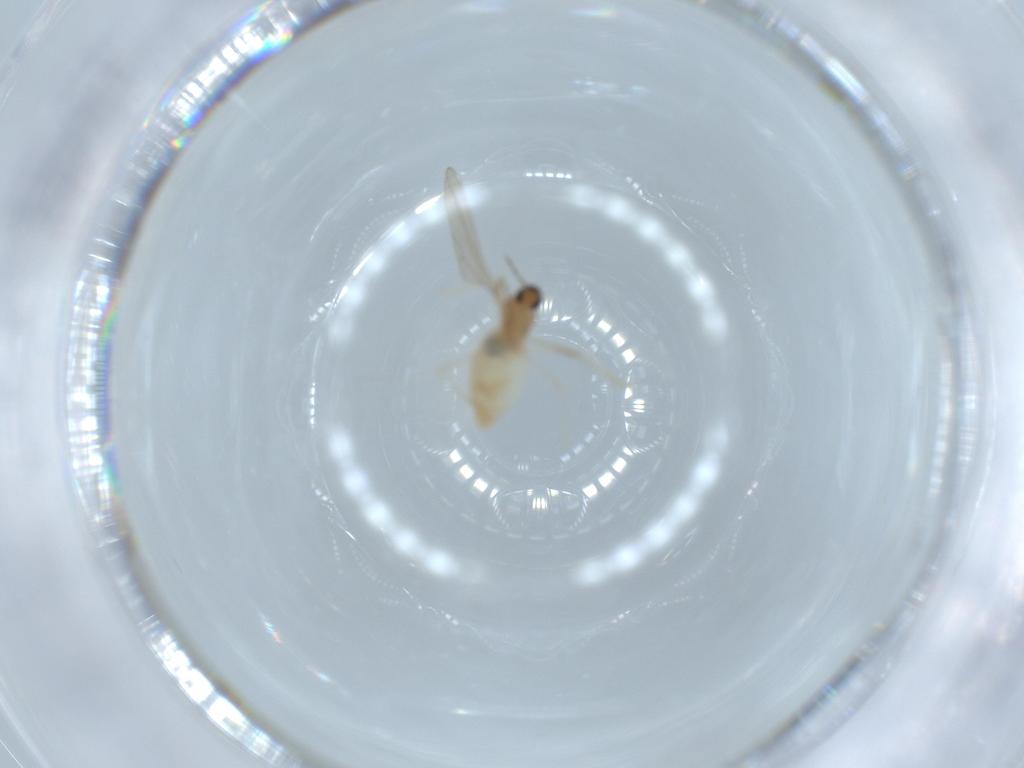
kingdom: Animalia
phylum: Arthropoda
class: Insecta
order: Diptera
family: Cecidomyiidae
